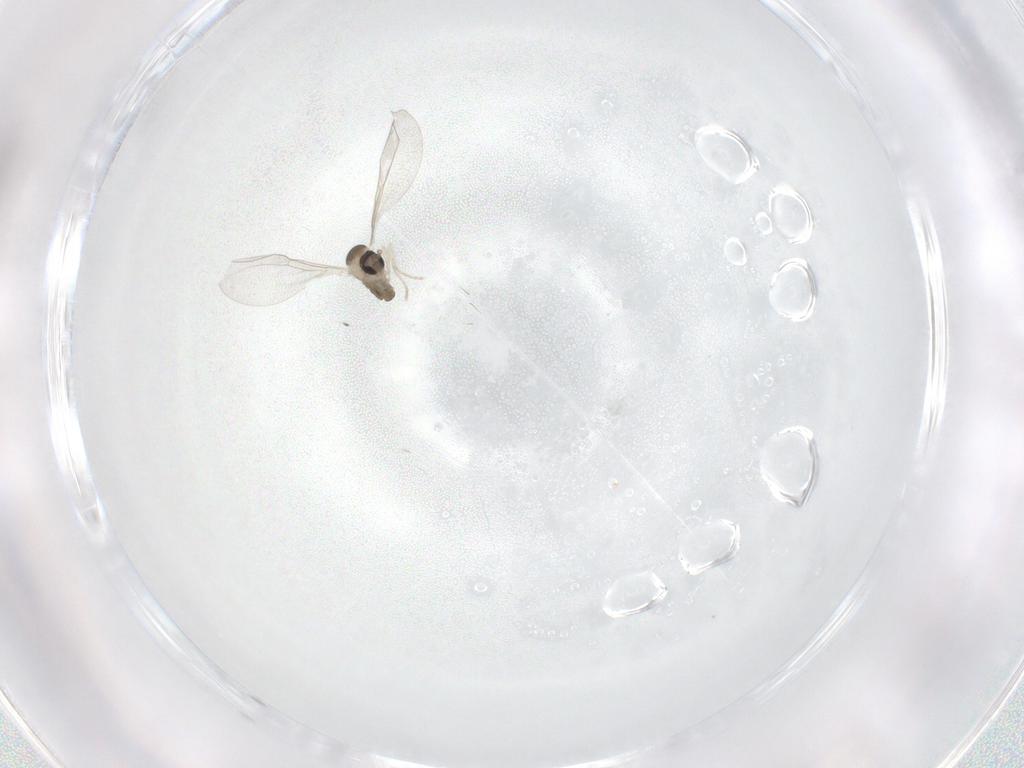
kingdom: Animalia
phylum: Arthropoda
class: Insecta
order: Diptera
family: Cecidomyiidae
